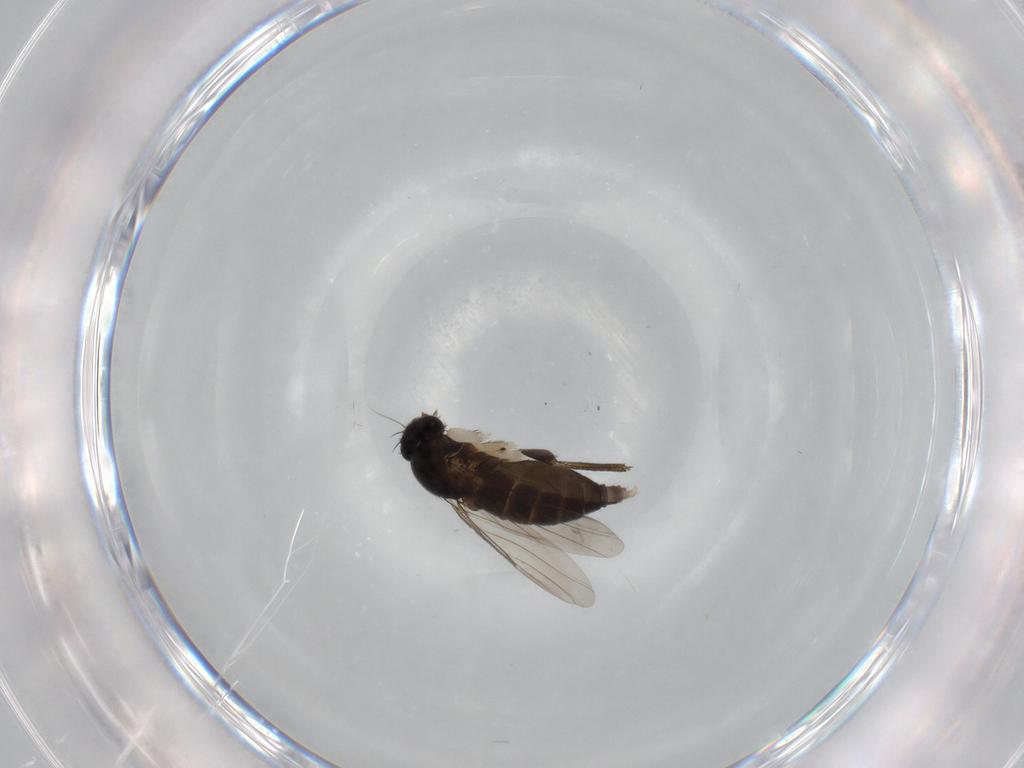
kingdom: Animalia
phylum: Arthropoda
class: Insecta
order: Diptera
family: Phoridae
